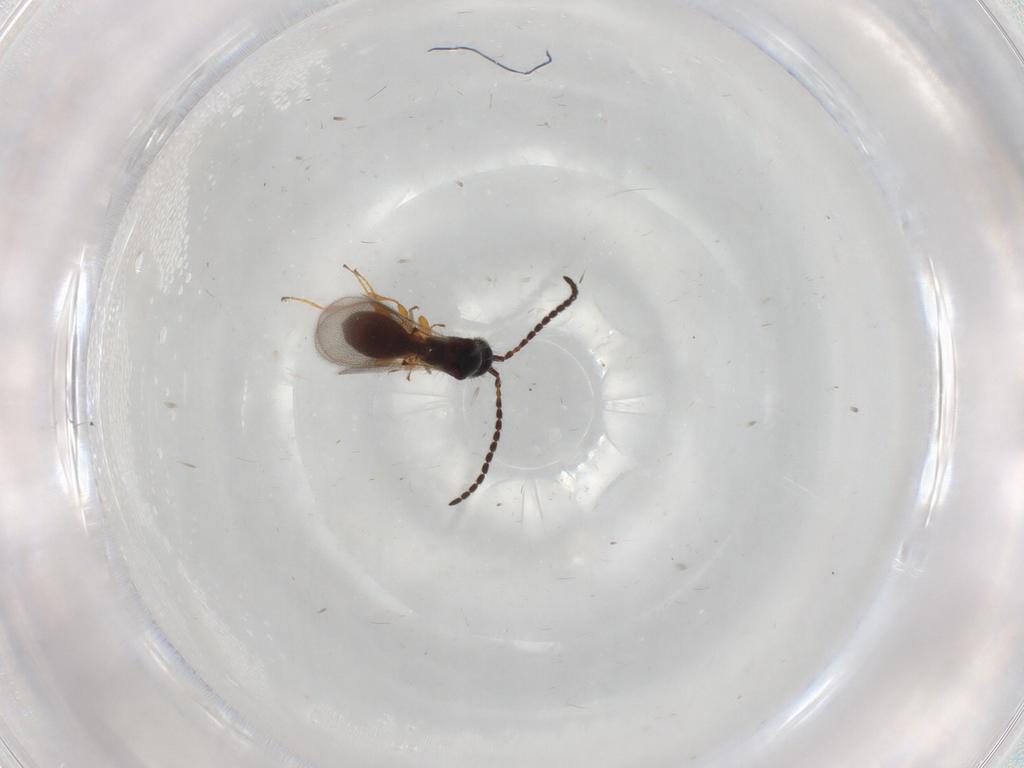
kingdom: Animalia
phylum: Arthropoda
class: Insecta
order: Hymenoptera
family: Diapriidae
